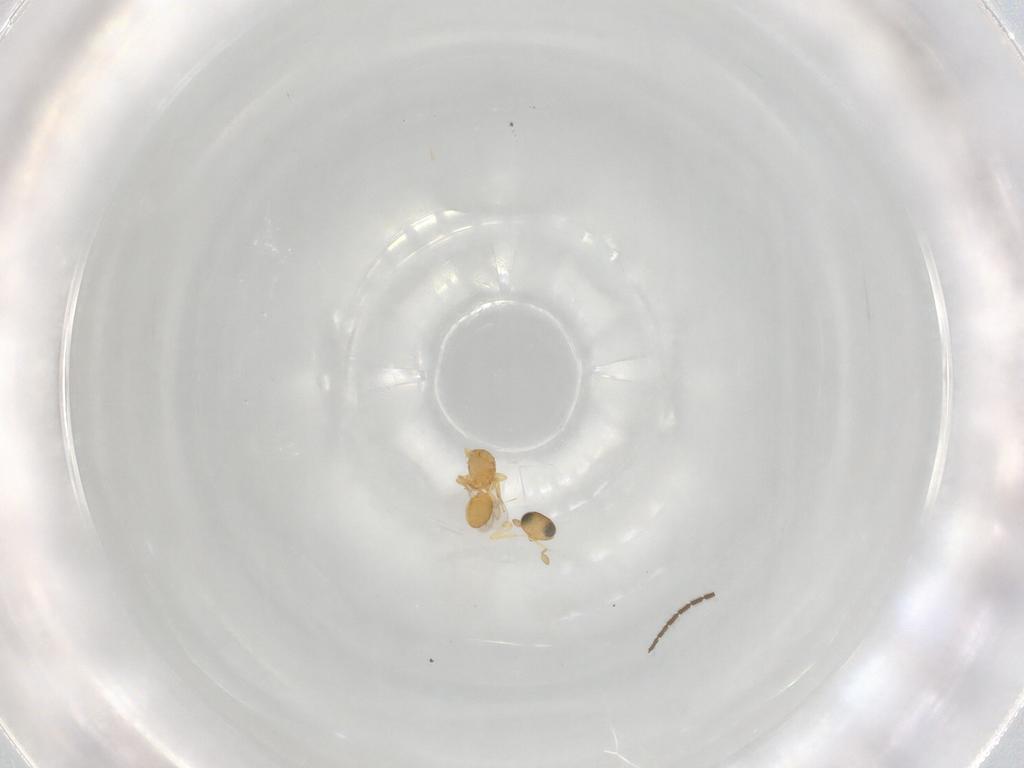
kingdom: Animalia
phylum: Arthropoda
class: Insecta
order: Hymenoptera
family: Scelionidae
